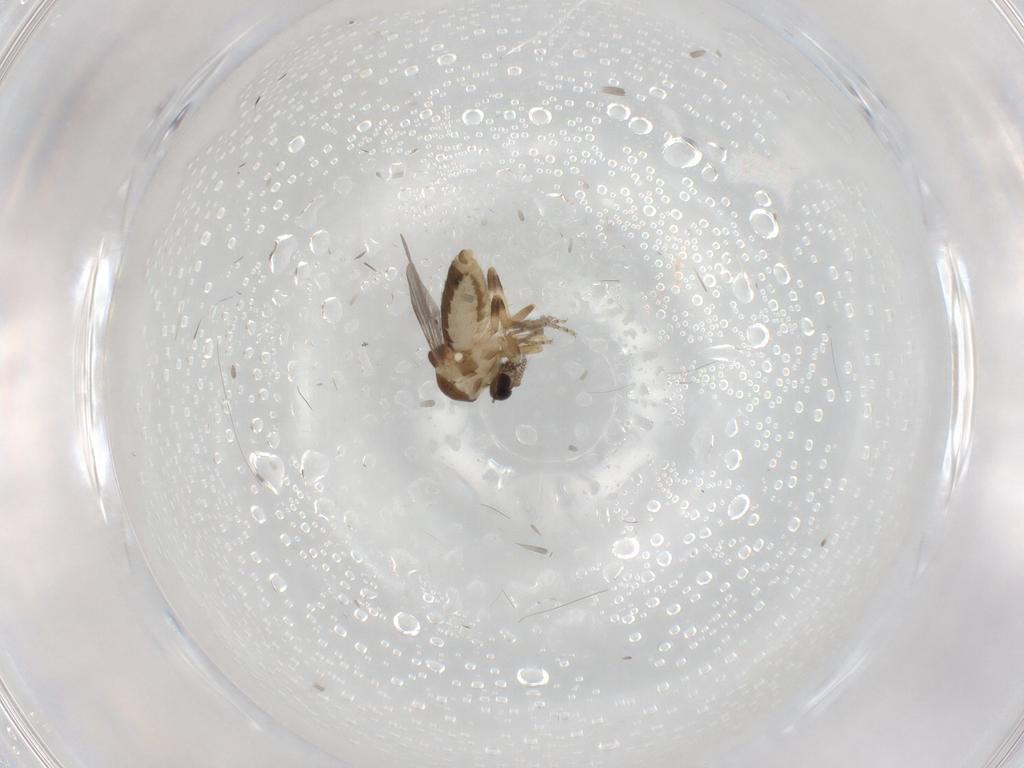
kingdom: Animalia
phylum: Arthropoda
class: Insecta
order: Diptera
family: Ceratopogonidae
